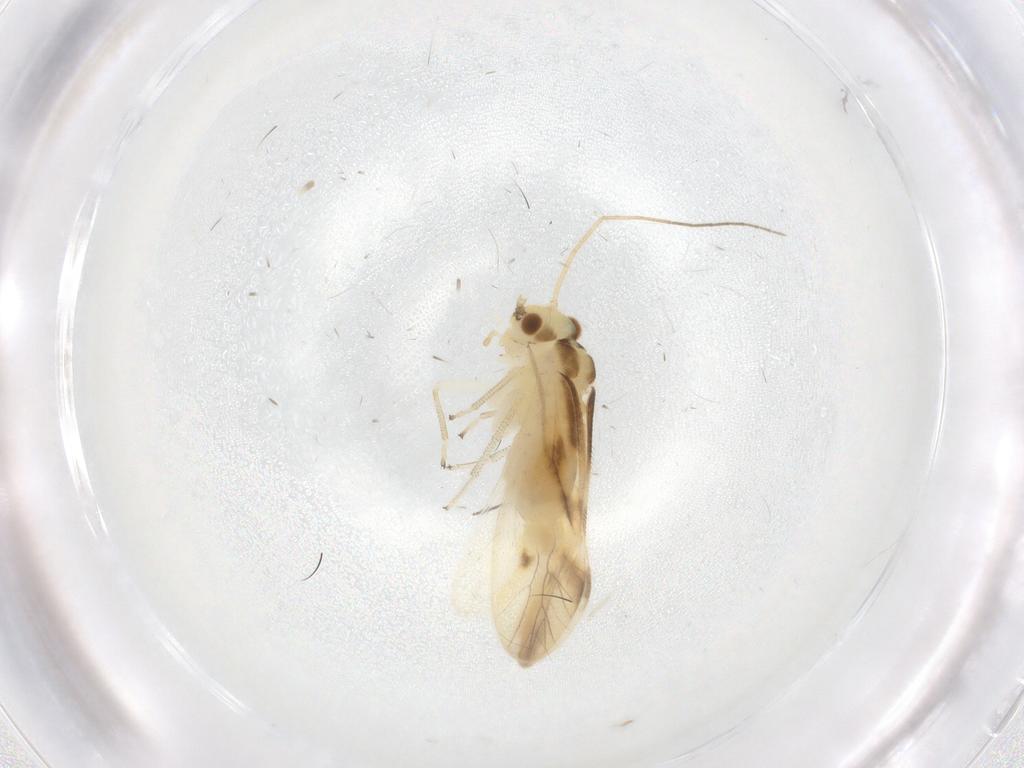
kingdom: Animalia
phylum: Arthropoda
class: Insecta
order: Psocodea
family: Caeciliusidae
